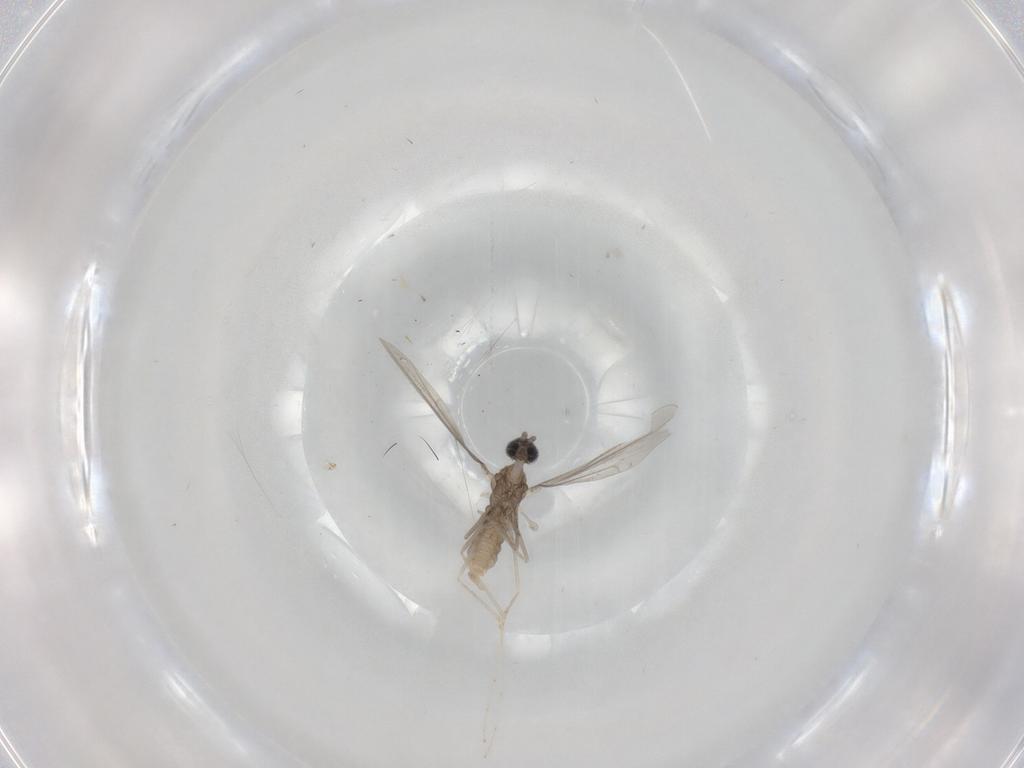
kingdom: Animalia
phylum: Arthropoda
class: Insecta
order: Diptera
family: Cecidomyiidae
